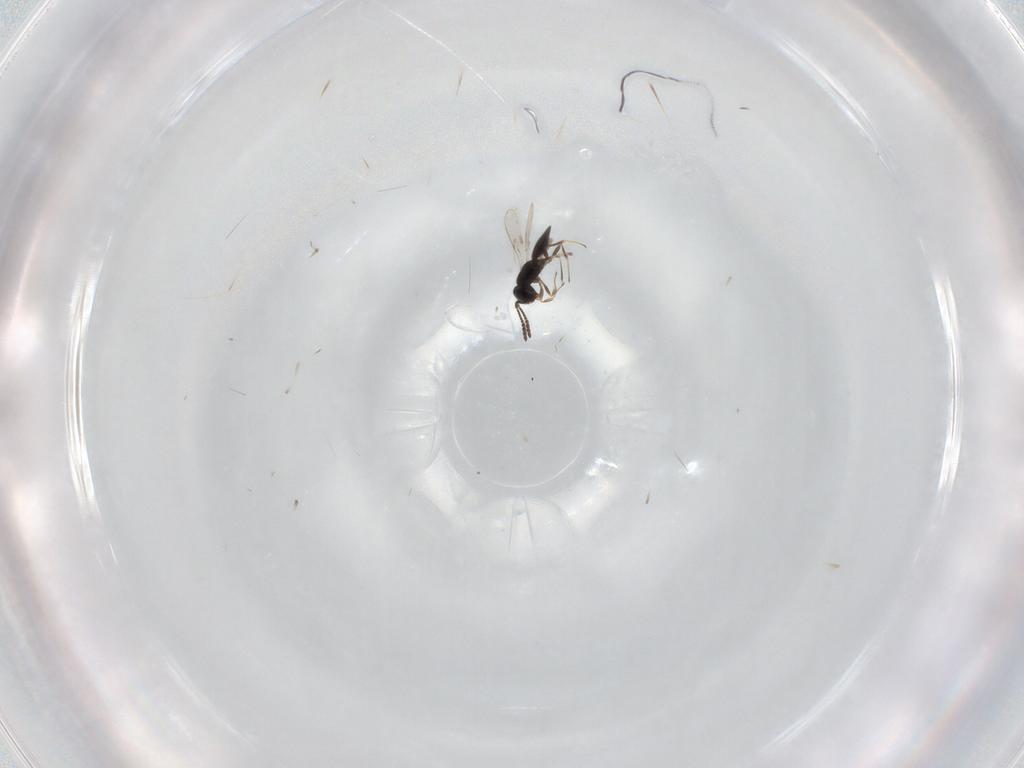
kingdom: Animalia
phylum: Arthropoda
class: Insecta
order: Hymenoptera
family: Scelionidae
